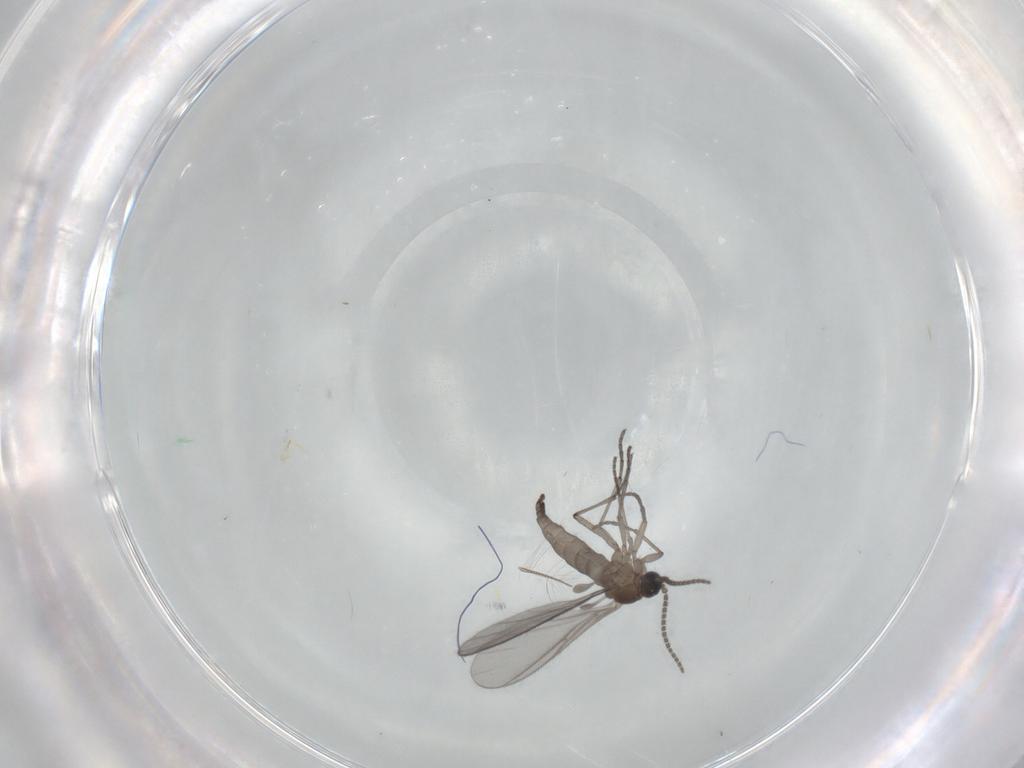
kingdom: Animalia
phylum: Arthropoda
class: Insecta
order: Diptera
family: Sciaridae
